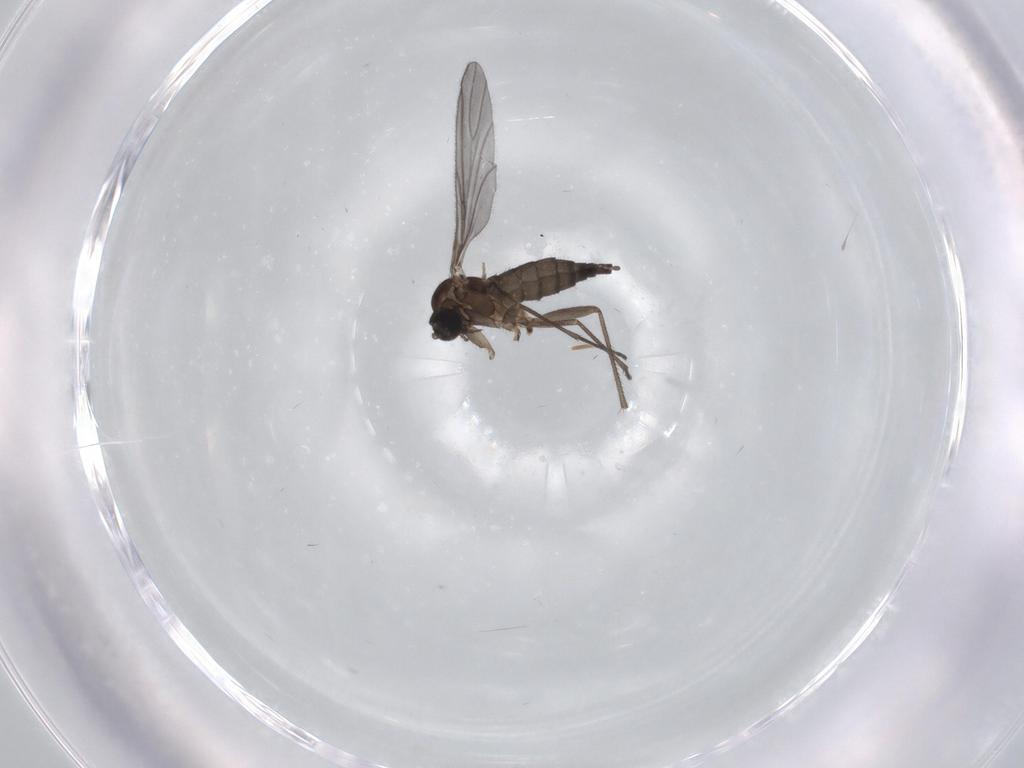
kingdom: Animalia
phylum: Arthropoda
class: Insecta
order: Diptera
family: Sciaridae
